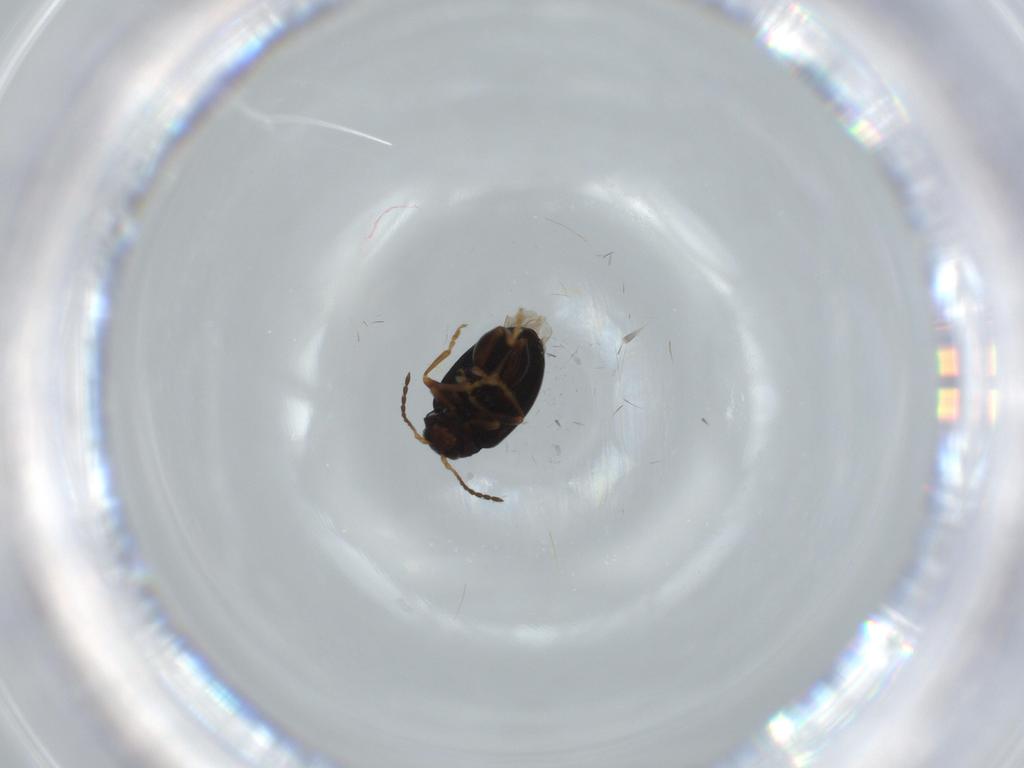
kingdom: Animalia
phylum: Arthropoda
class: Insecta
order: Coleoptera
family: Chrysomelidae
